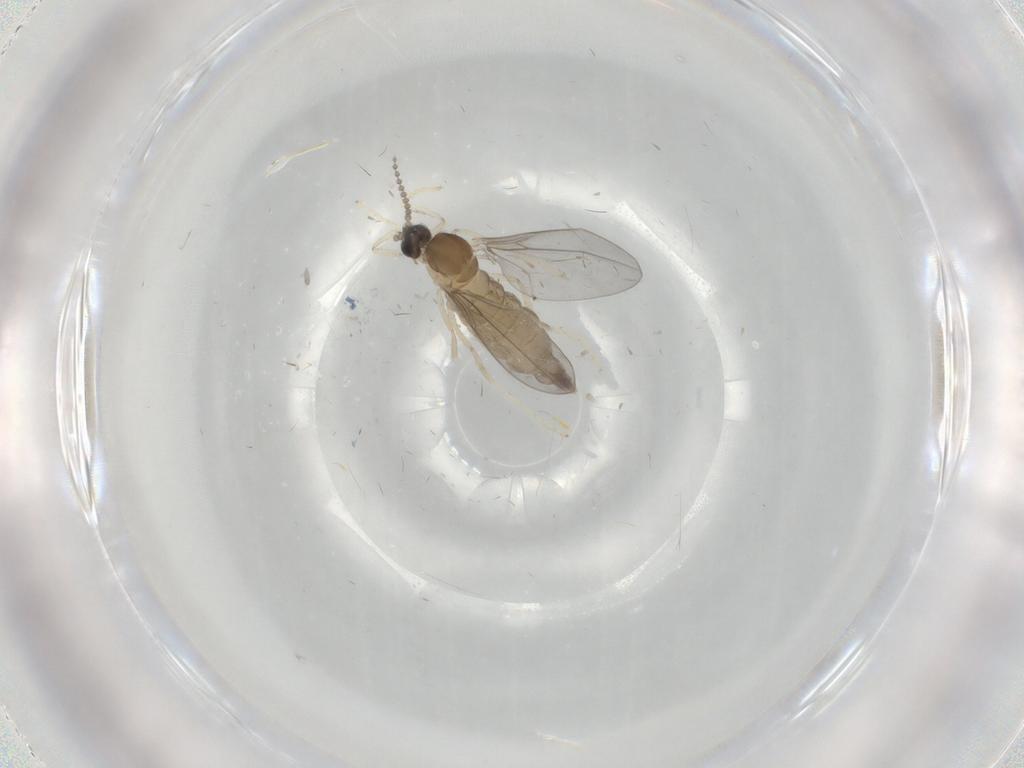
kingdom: Animalia
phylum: Arthropoda
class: Insecta
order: Diptera
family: Cecidomyiidae
